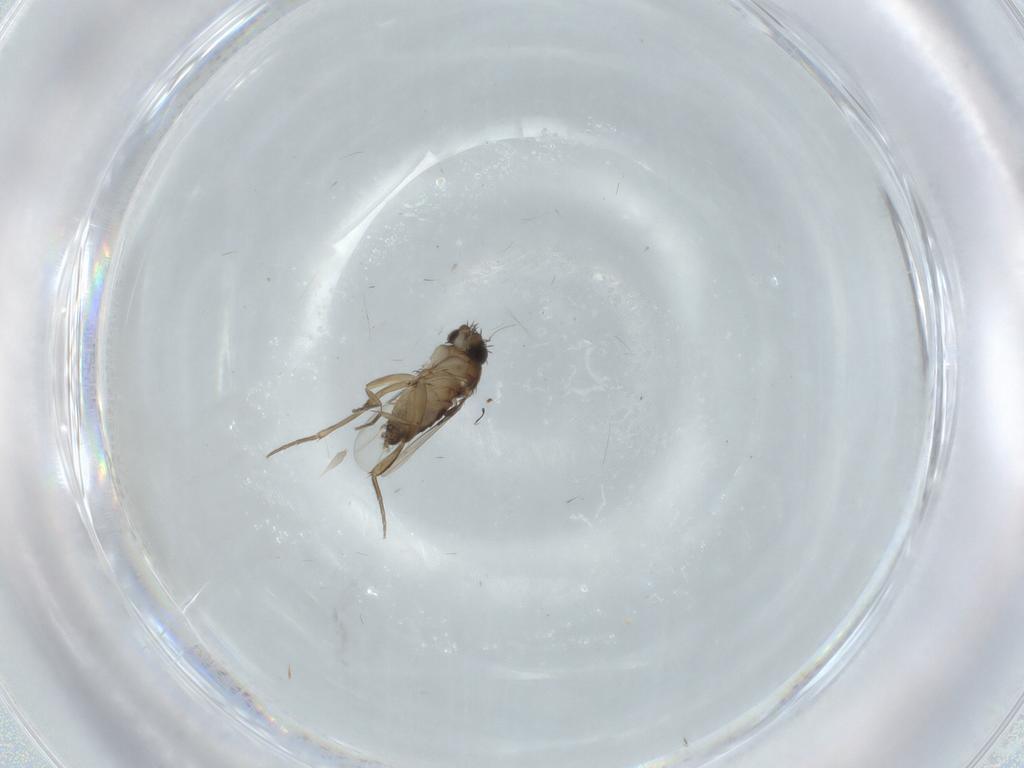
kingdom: Animalia
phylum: Arthropoda
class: Insecta
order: Diptera
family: Phoridae
